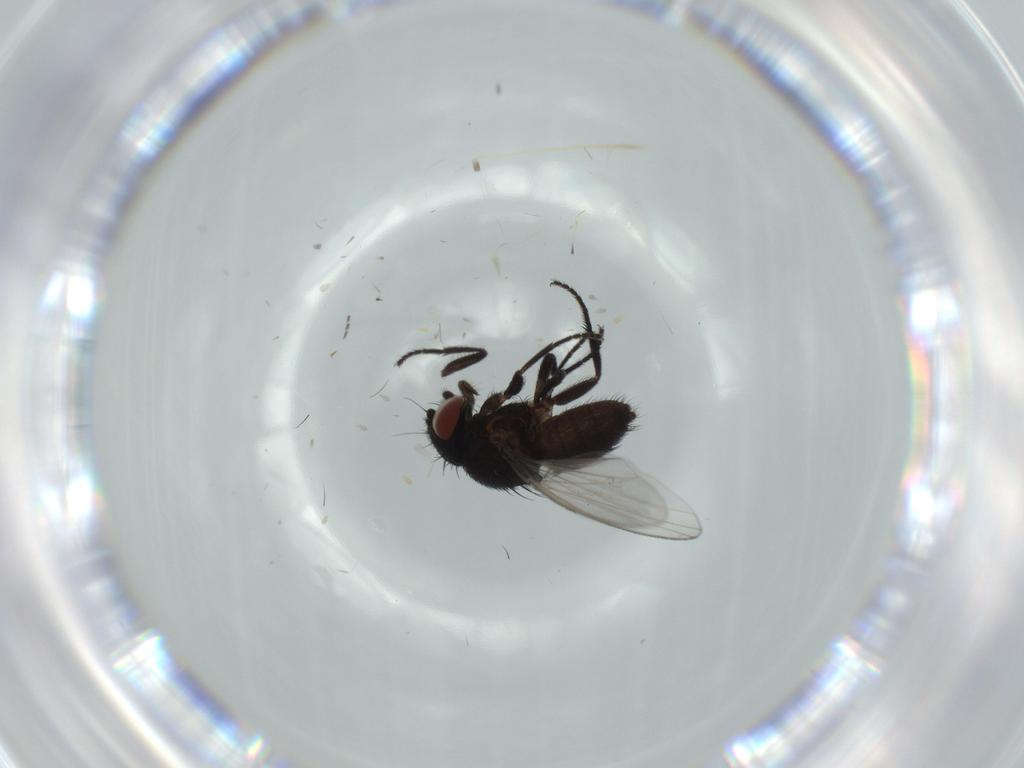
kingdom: Animalia
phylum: Arthropoda
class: Insecta
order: Diptera
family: Milichiidae
